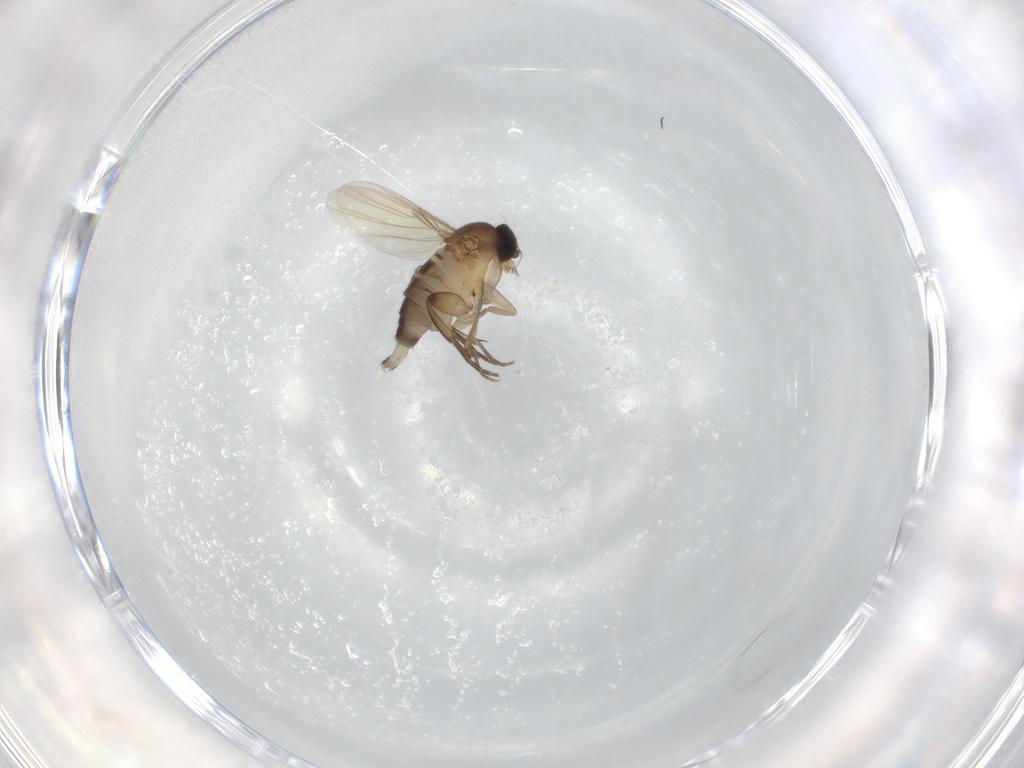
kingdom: Animalia
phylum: Arthropoda
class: Insecta
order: Diptera
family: Phoridae
